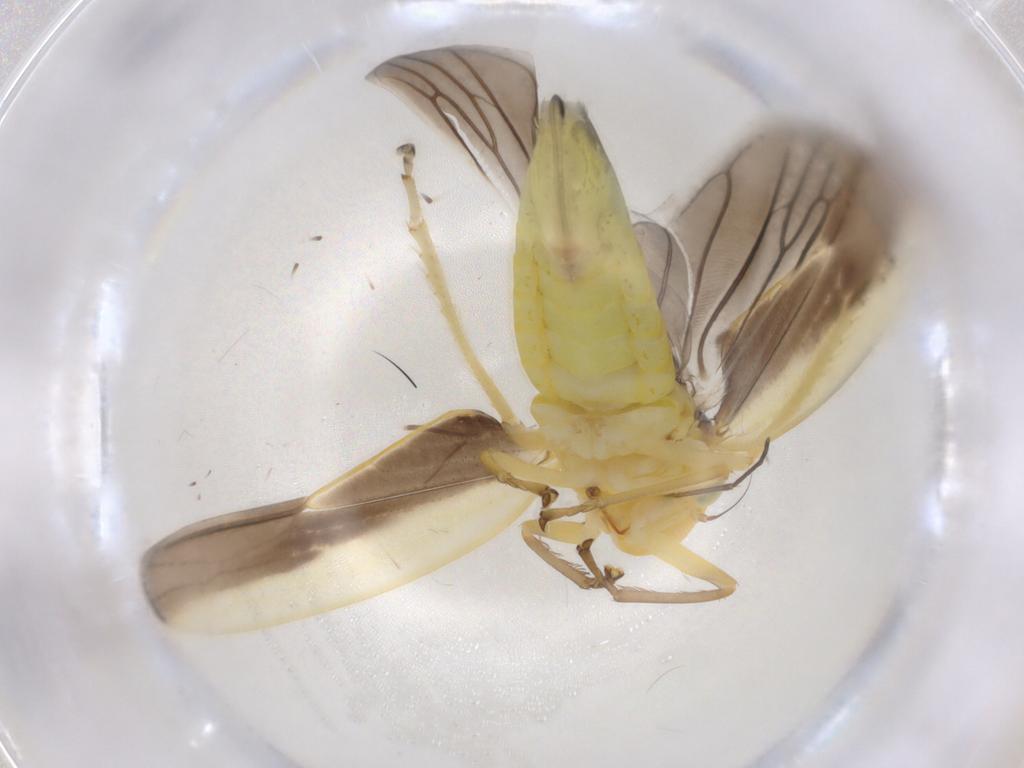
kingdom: Animalia
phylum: Arthropoda
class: Insecta
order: Hemiptera
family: Cicadellidae
